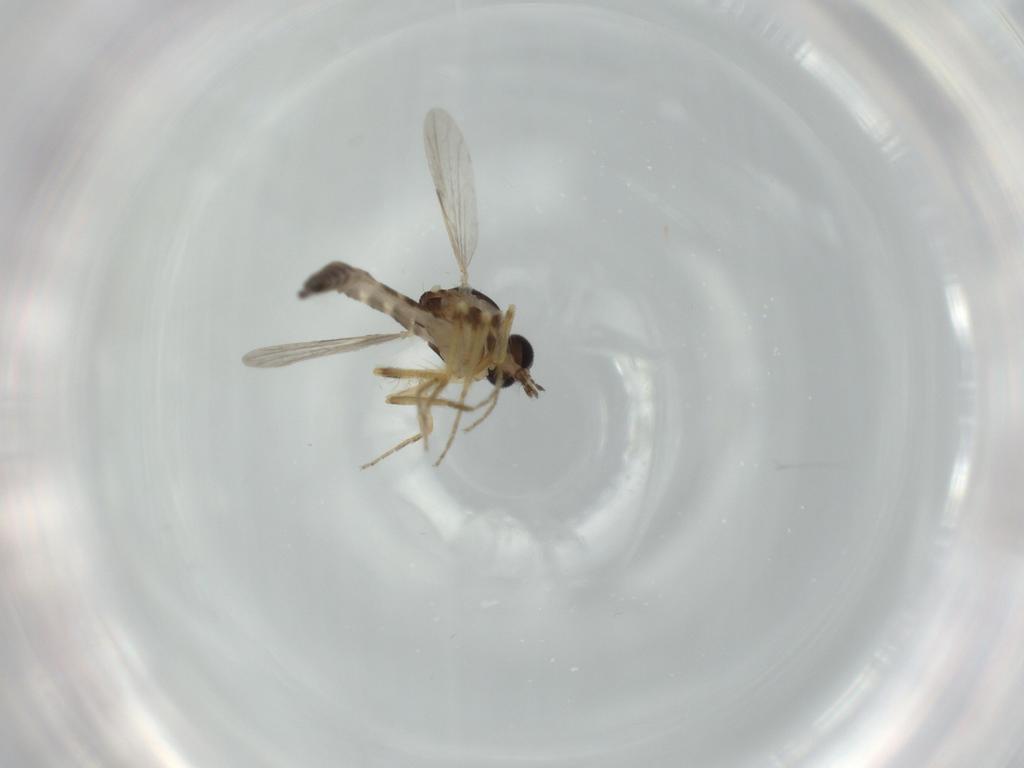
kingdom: Animalia
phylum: Arthropoda
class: Insecta
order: Diptera
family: Ceratopogonidae
